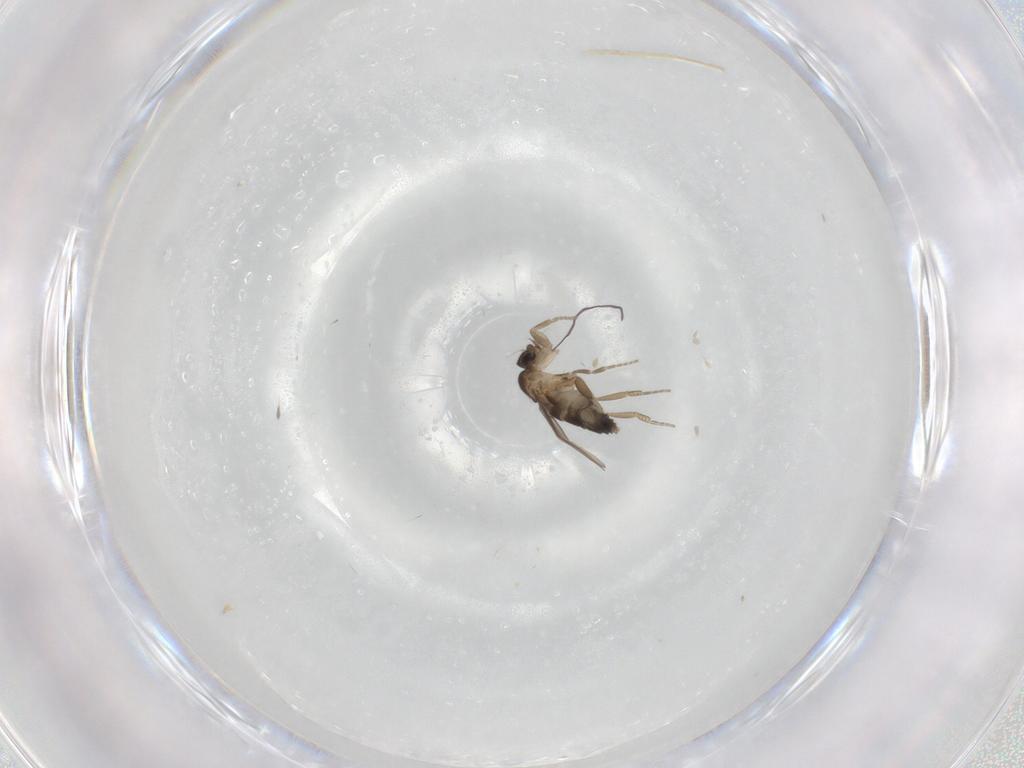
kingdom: Animalia
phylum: Arthropoda
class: Insecta
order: Diptera
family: Phoridae
